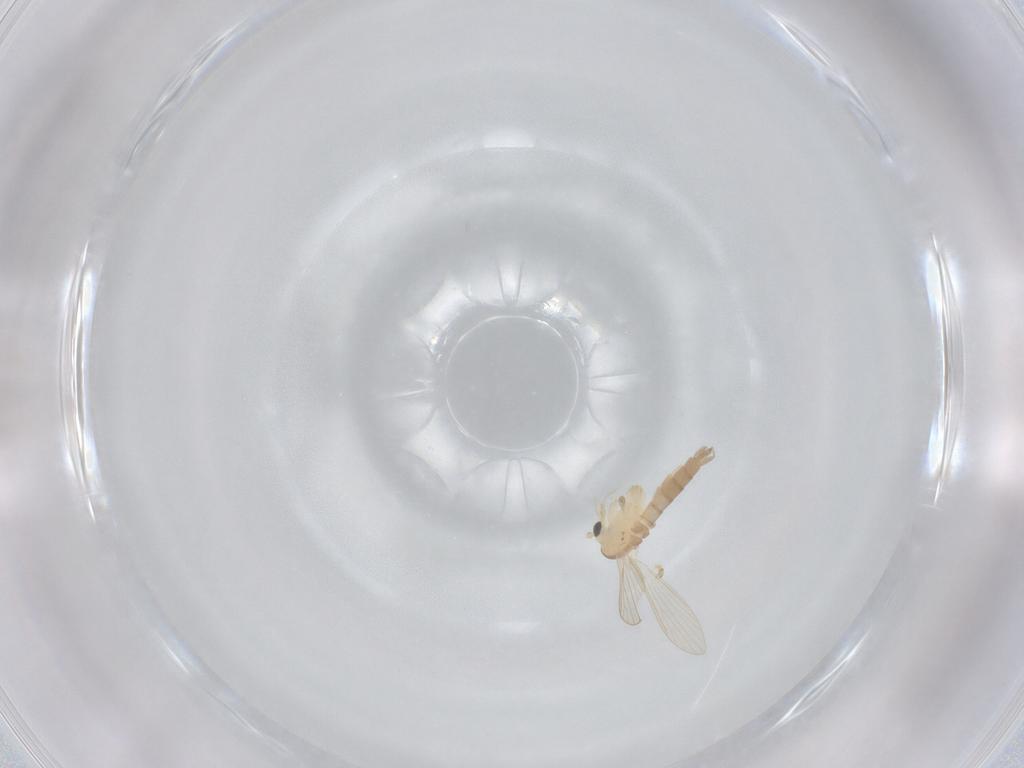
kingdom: Animalia
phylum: Arthropoda
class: Insecta
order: Diptera
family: Psychodidae
